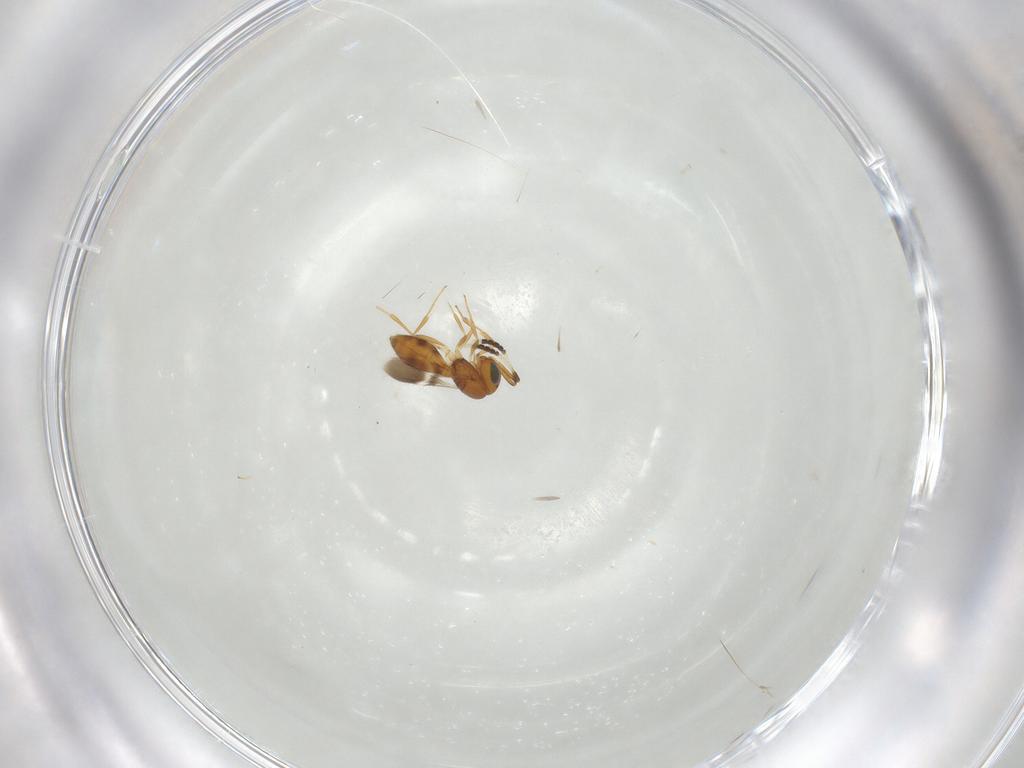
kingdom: Animalia
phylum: Arthropoda
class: Insecta
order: Hymenoptera
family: Scelionidae
